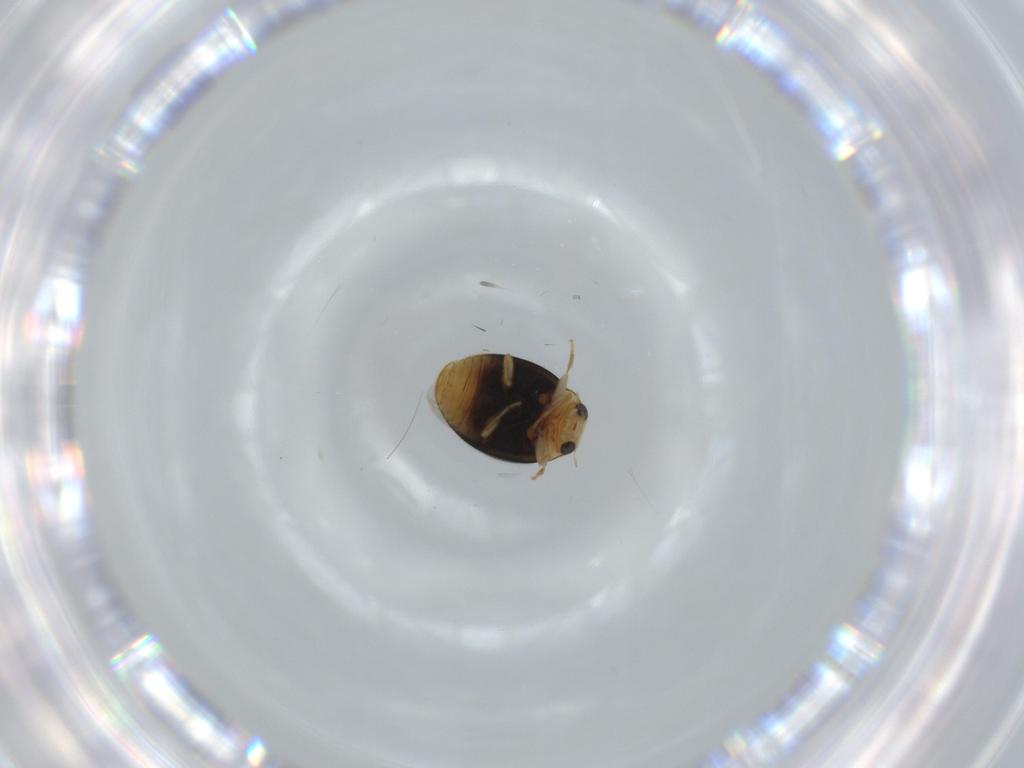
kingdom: Animalia
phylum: Arthropoda
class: Insecta
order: Coleoptera
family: Coccinellidae
